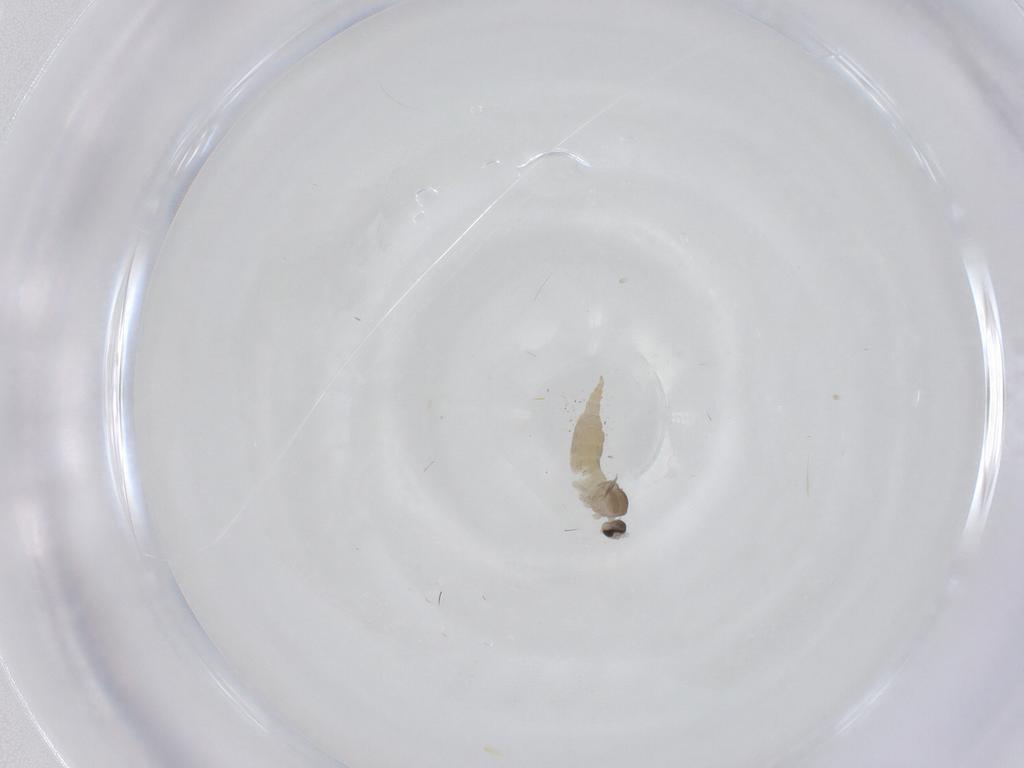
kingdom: Animalia
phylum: Arthropoda
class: Insecta
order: Diptera
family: Cecidomyiidae
